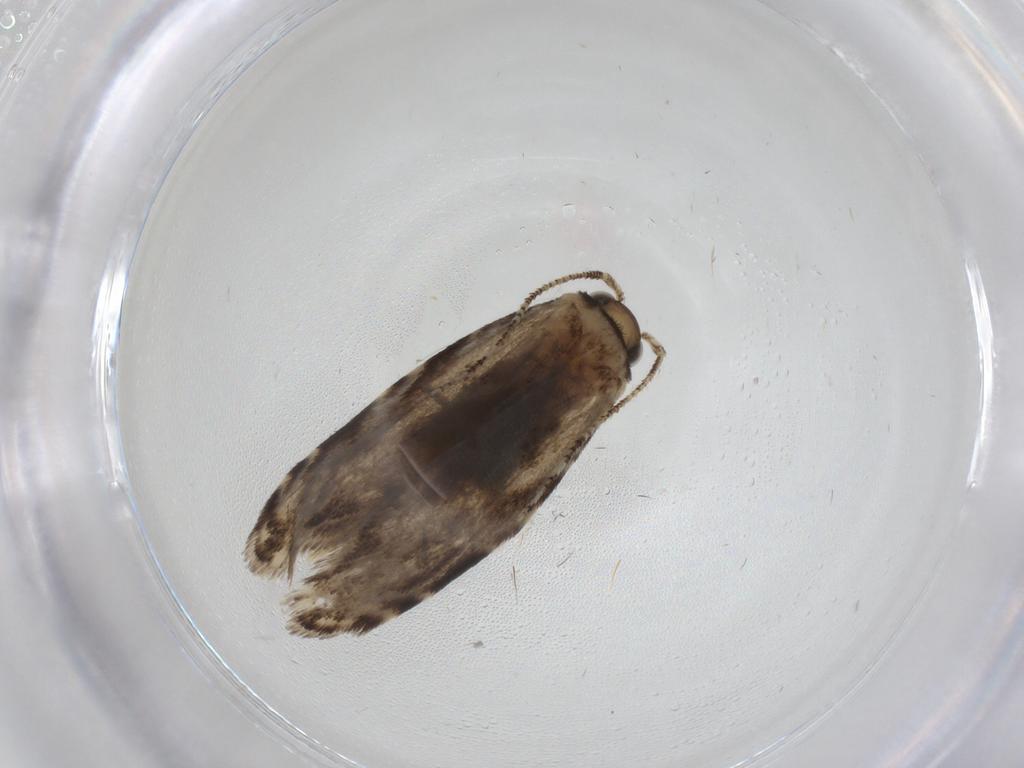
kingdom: Animalia
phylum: Arthropoda
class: Insecta
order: Lepidoptera
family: Tineidae
